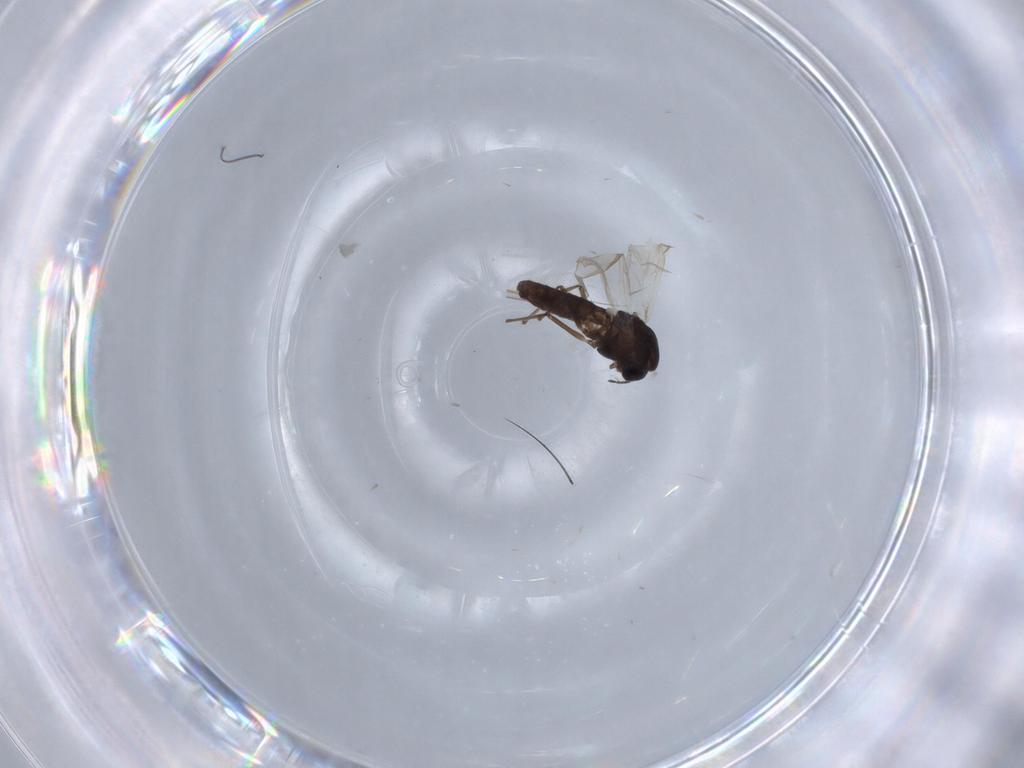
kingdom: Animalia
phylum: Arthropoda
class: Insecta
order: Diptera
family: Chironomidae
